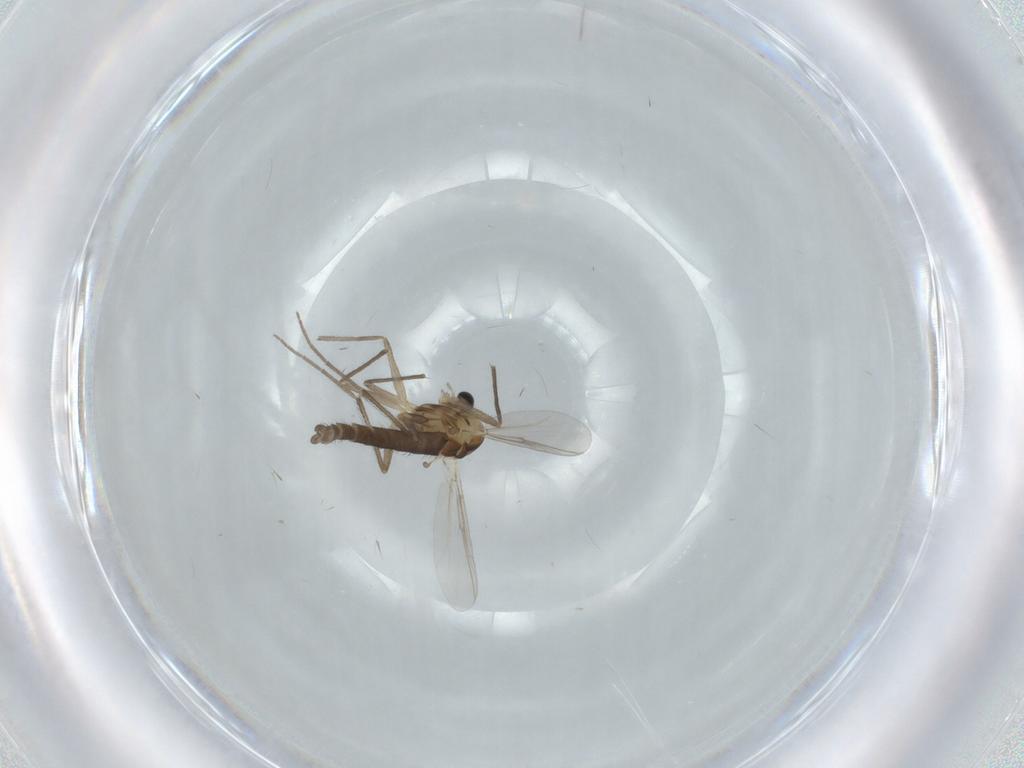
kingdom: Animalia
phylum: Arthropoda
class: Insecta
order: Diptera
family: Chironomidae
